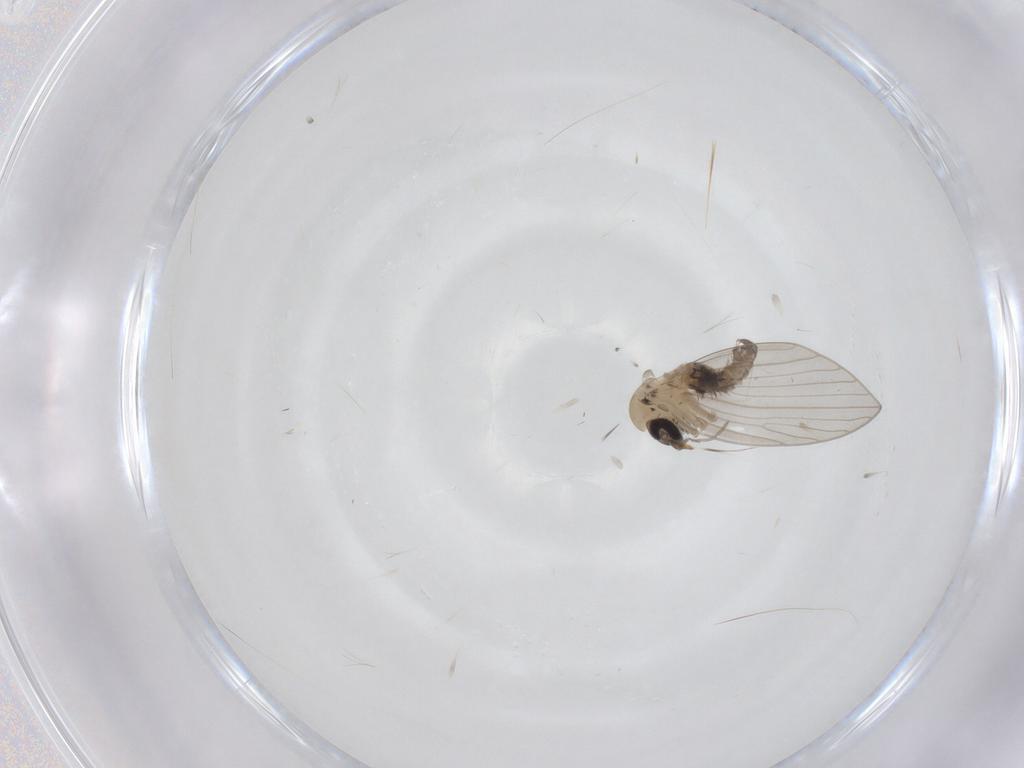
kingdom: Animalia
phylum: Arthropoda
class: Insecta
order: Diptera
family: Psychodidae
